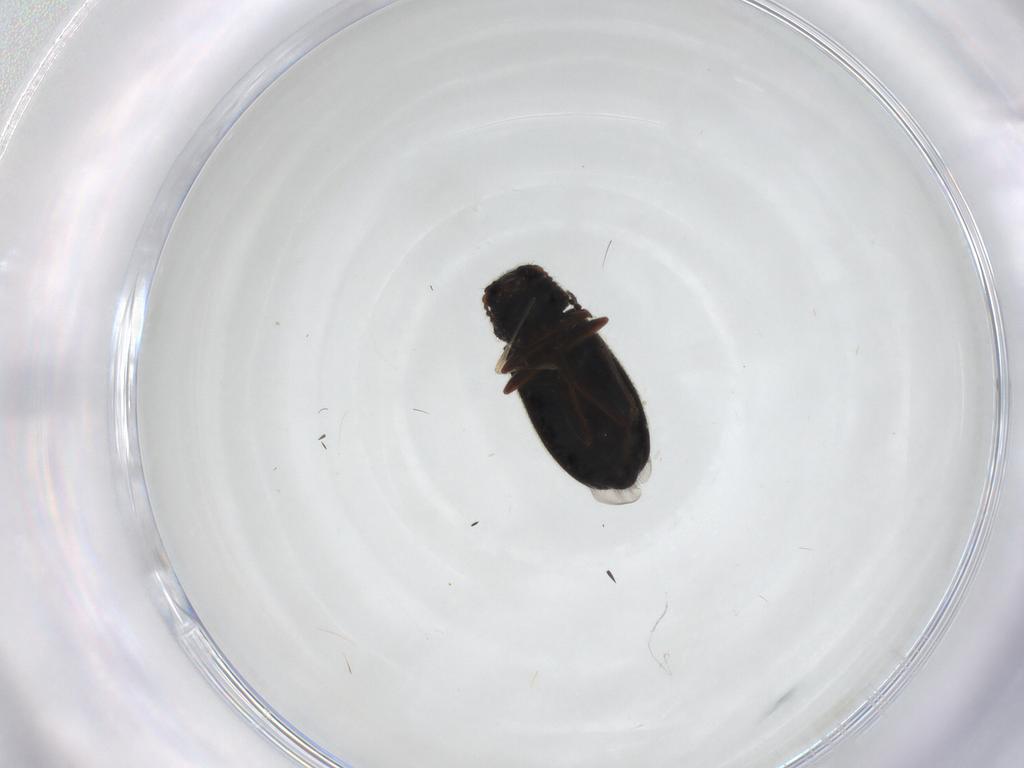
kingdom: Animalia
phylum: Arthropoda
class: Insecta
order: Coleoptera
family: Melyridae
